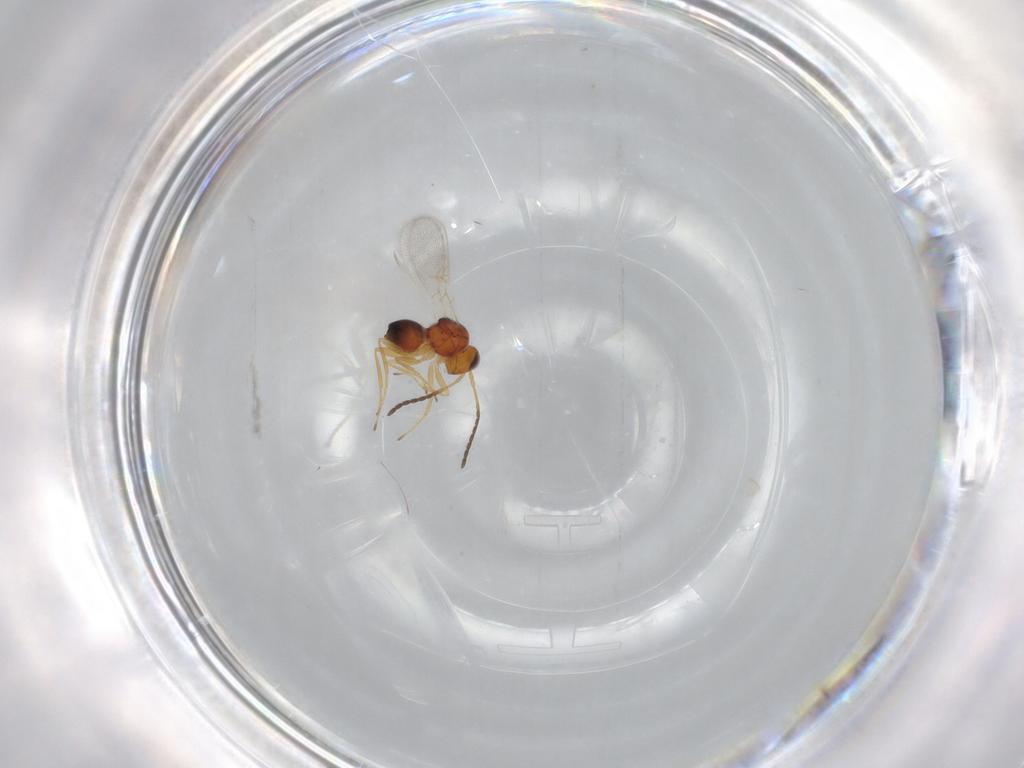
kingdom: Animalia
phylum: Arthropoda
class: Insecta
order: Hymenoptera
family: Figitidae
